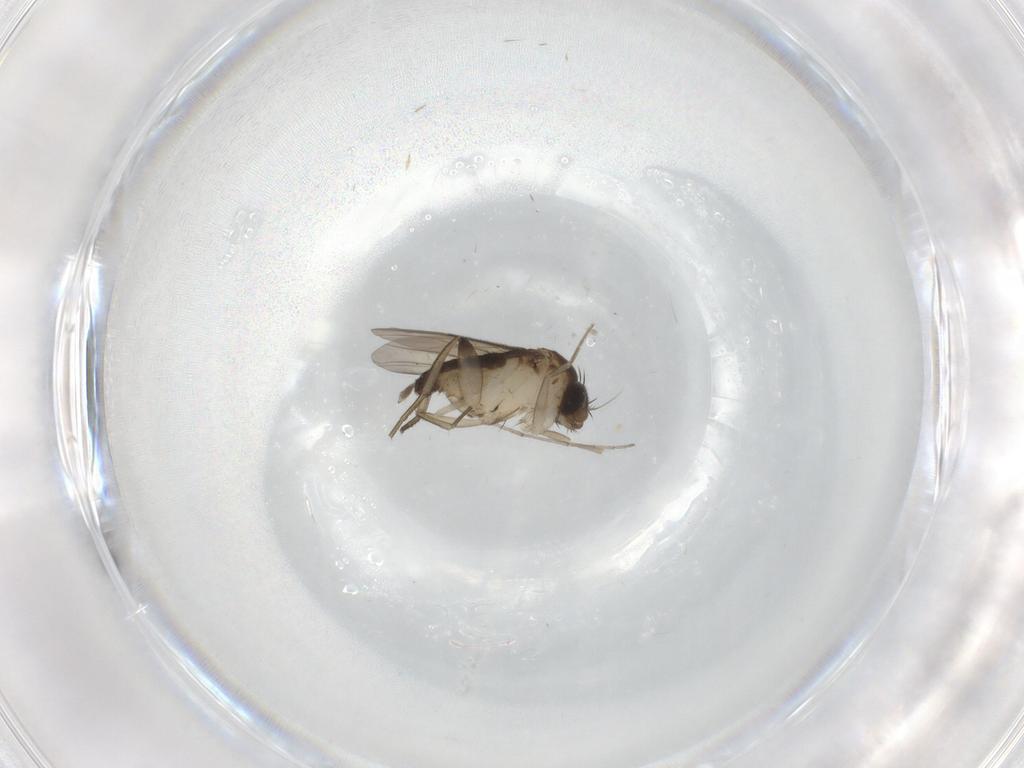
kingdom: Animalia
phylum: Arthropoda
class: Insecta
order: Diptera
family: Phoridae
